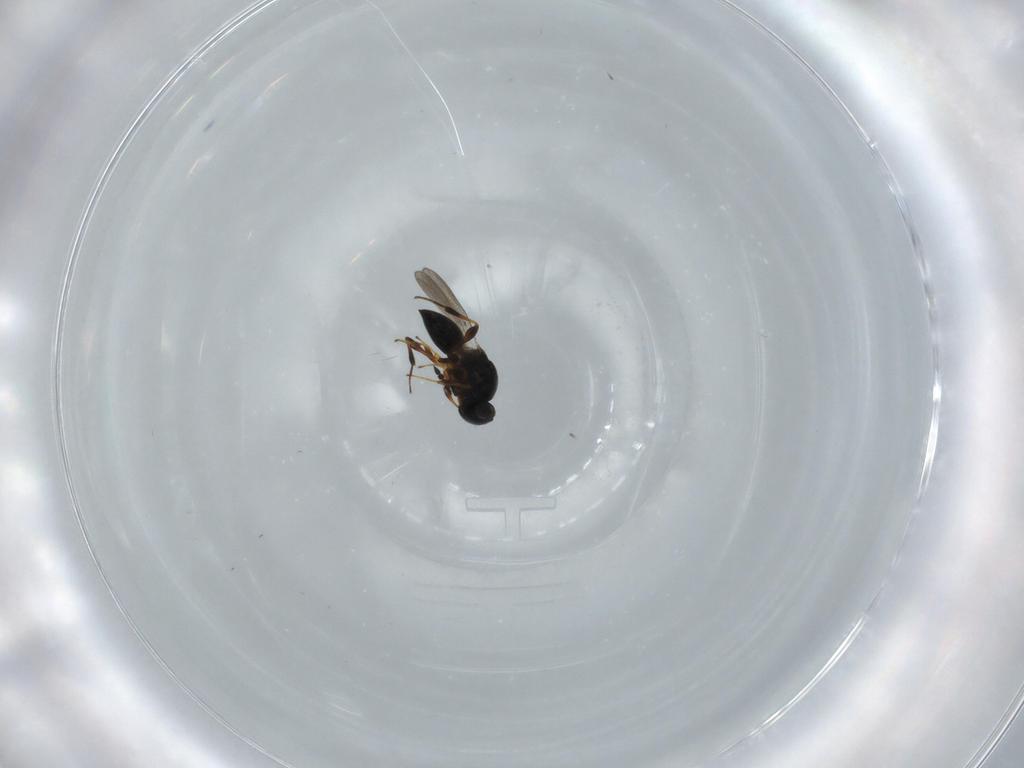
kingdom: Animalia
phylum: Arthropoda
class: Insecta
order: Hymenoptera
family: Platygastridae
